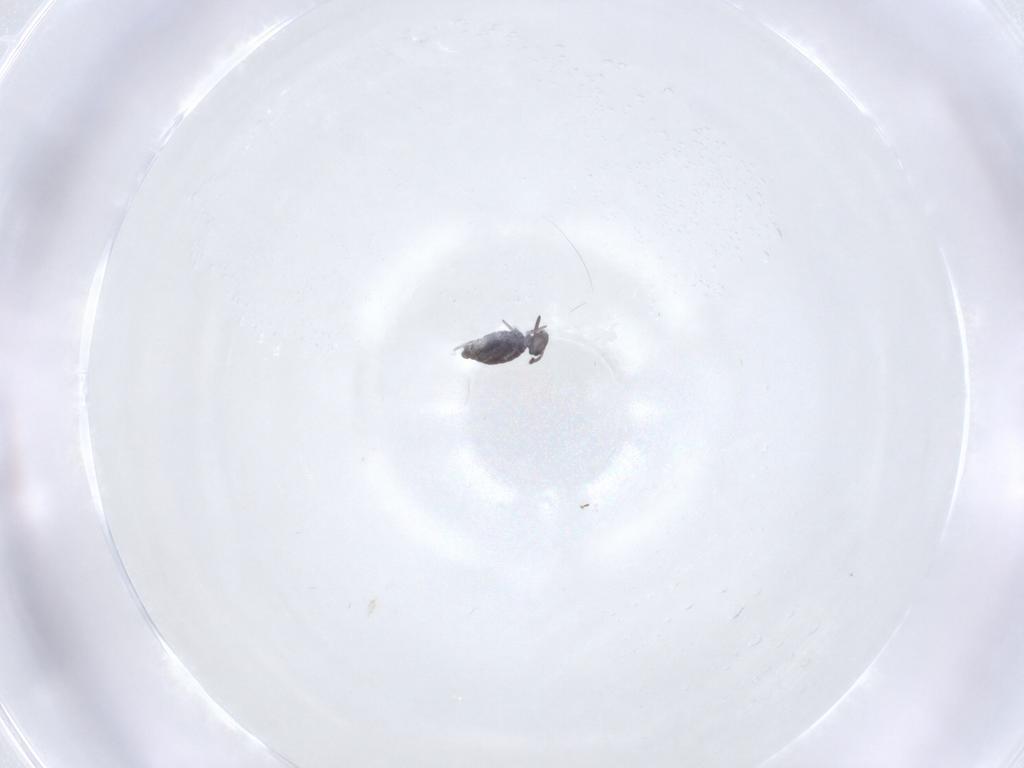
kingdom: Animalia
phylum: Arthropoda
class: Collembola
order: Symphypleona
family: Katiannidae
